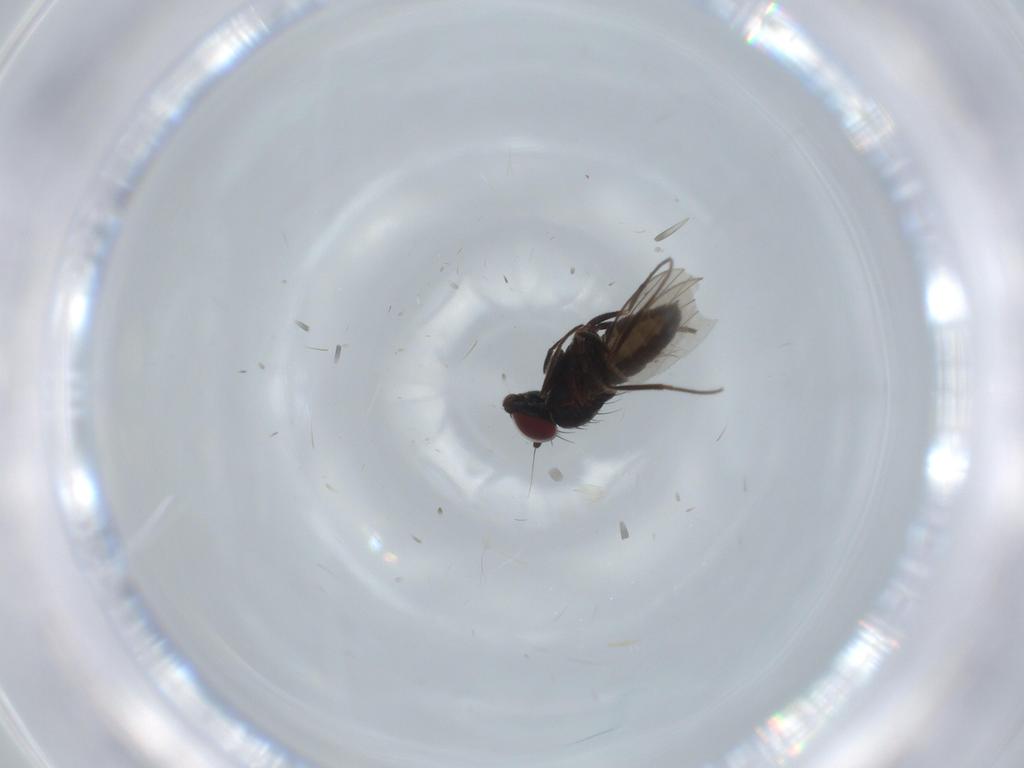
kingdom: Animalia
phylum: Arthropoda
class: Insecta
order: Diptera
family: Dolichopodidae
